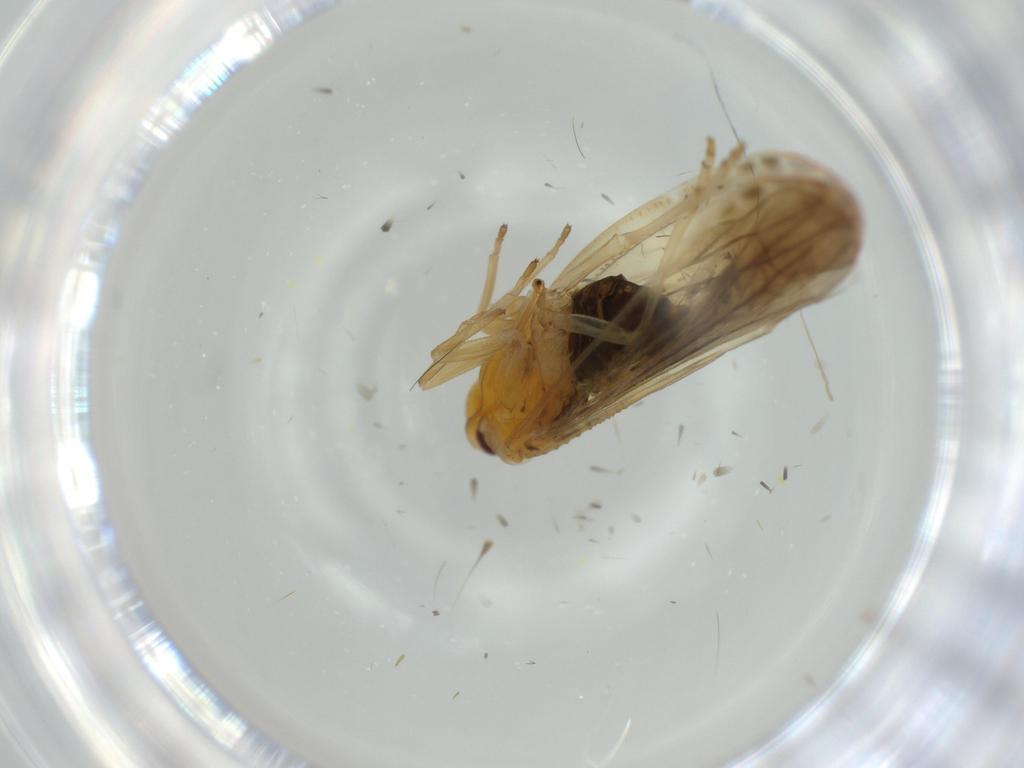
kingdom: Animalia
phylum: Arthropoda
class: Insecta
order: Hemiptera
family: Derbidae
